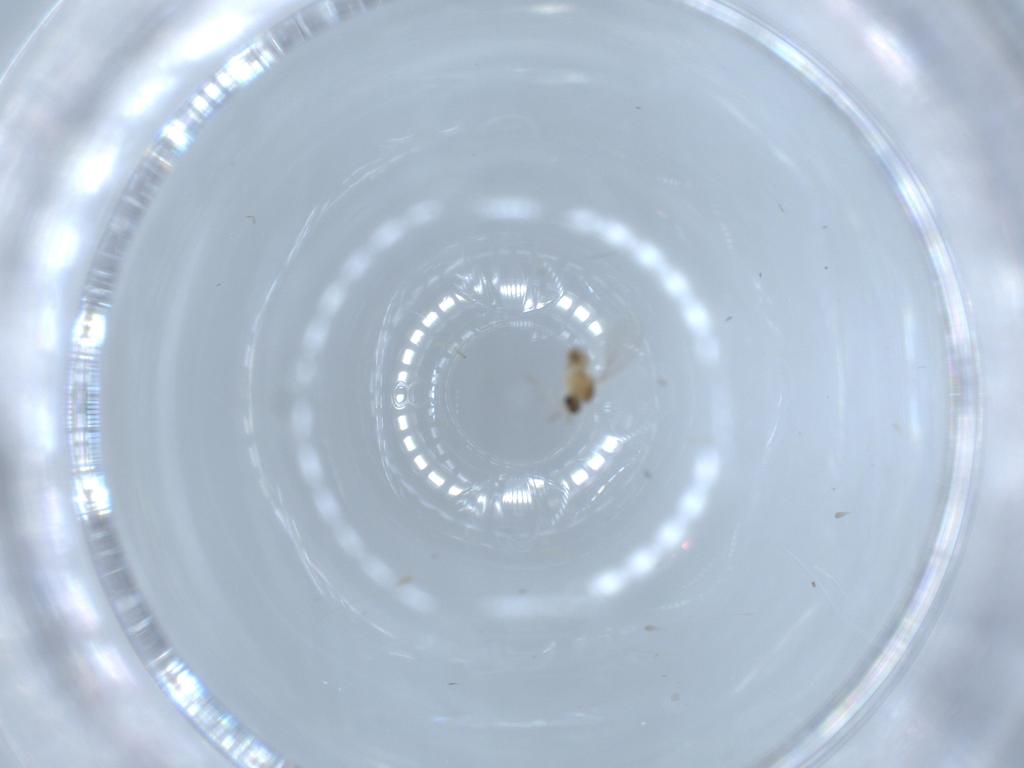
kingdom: Animalia
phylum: Arthropoda
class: Insecta
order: Diptera
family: Cecidomyiidae
